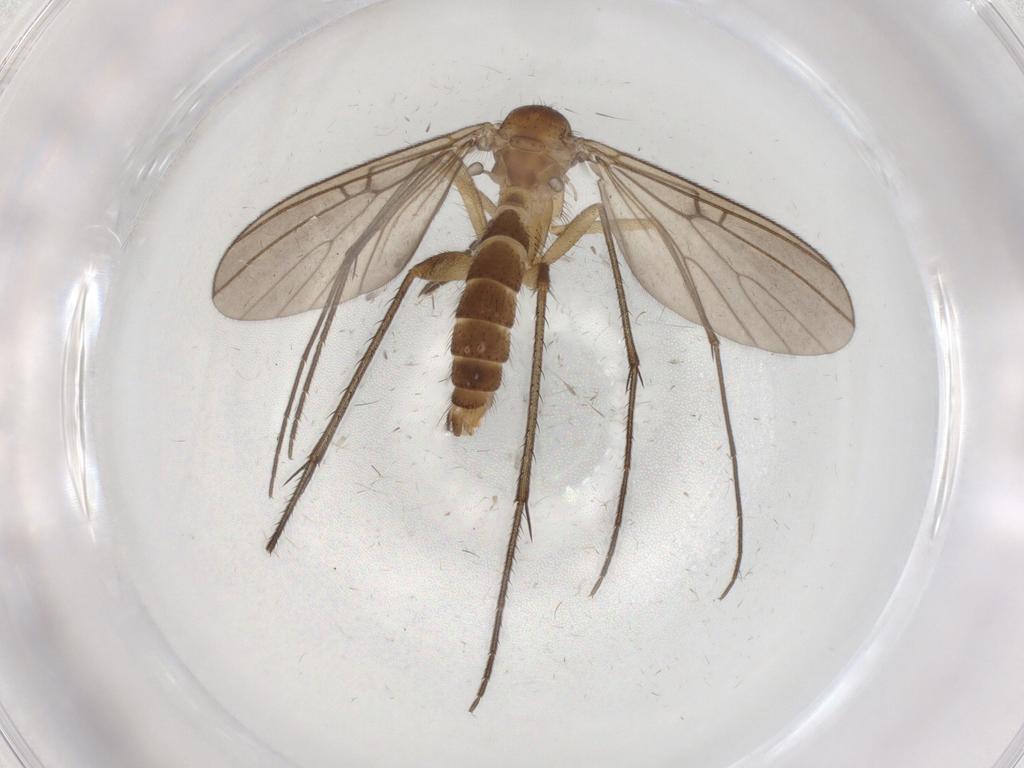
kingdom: Animalia
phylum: Arthropoda
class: Insecta
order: Diptera
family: Phoridae
